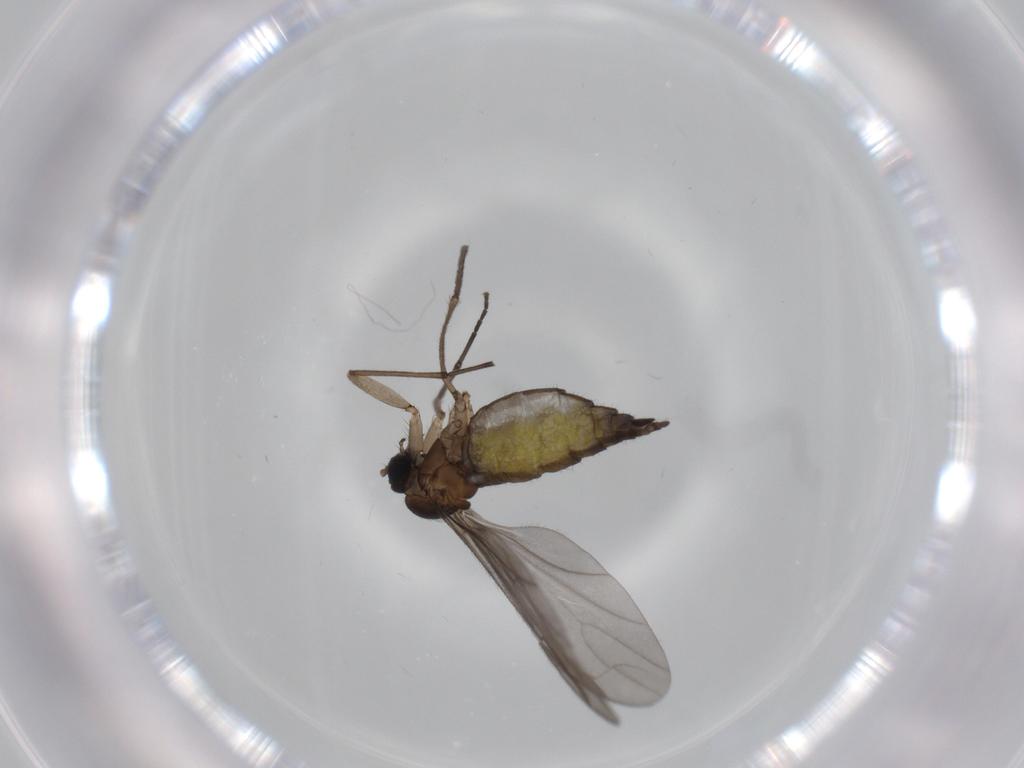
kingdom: Animalia
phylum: Arthropoda
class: Insecta
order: Diptera
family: Sciaridae
